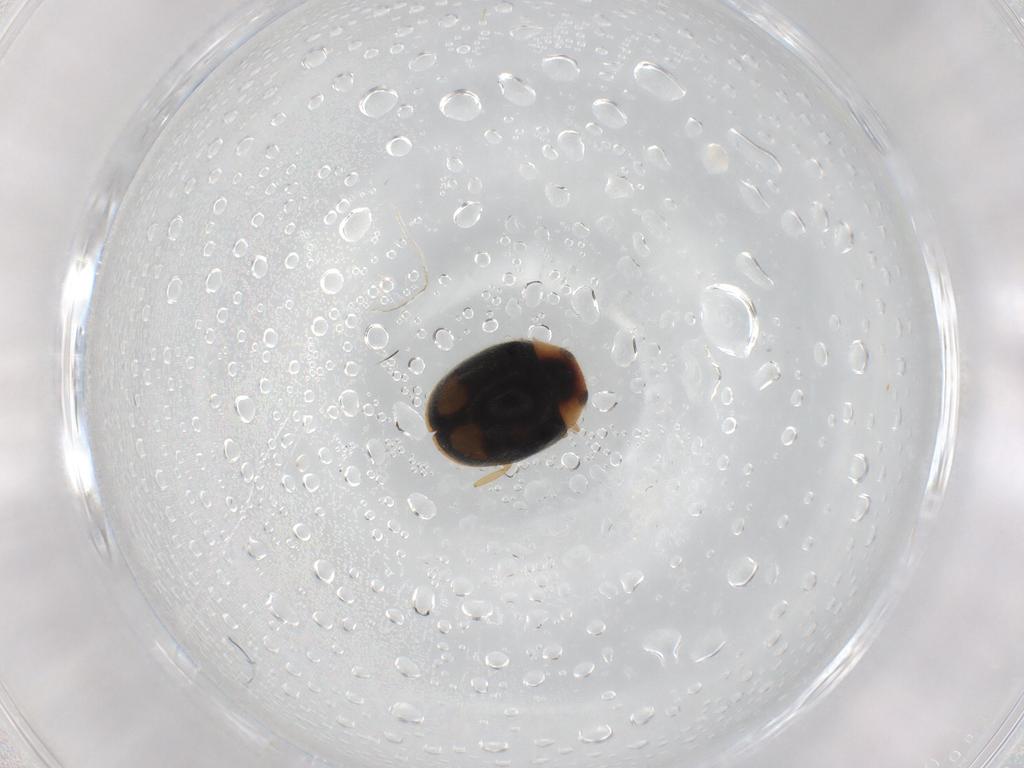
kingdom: Animalia
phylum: Arthropoda
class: Insecta
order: Coleoptera
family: Coccinellidae
